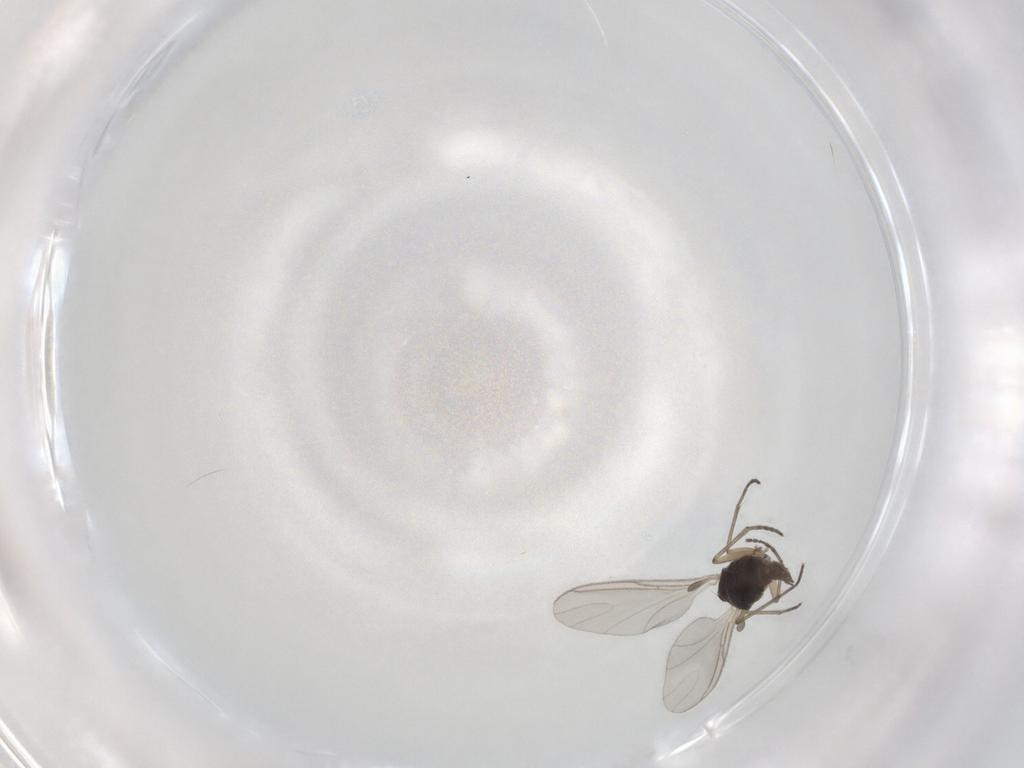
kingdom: Animalia
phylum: Arthropoda
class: Insecta
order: Diptera
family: Sciaridae
